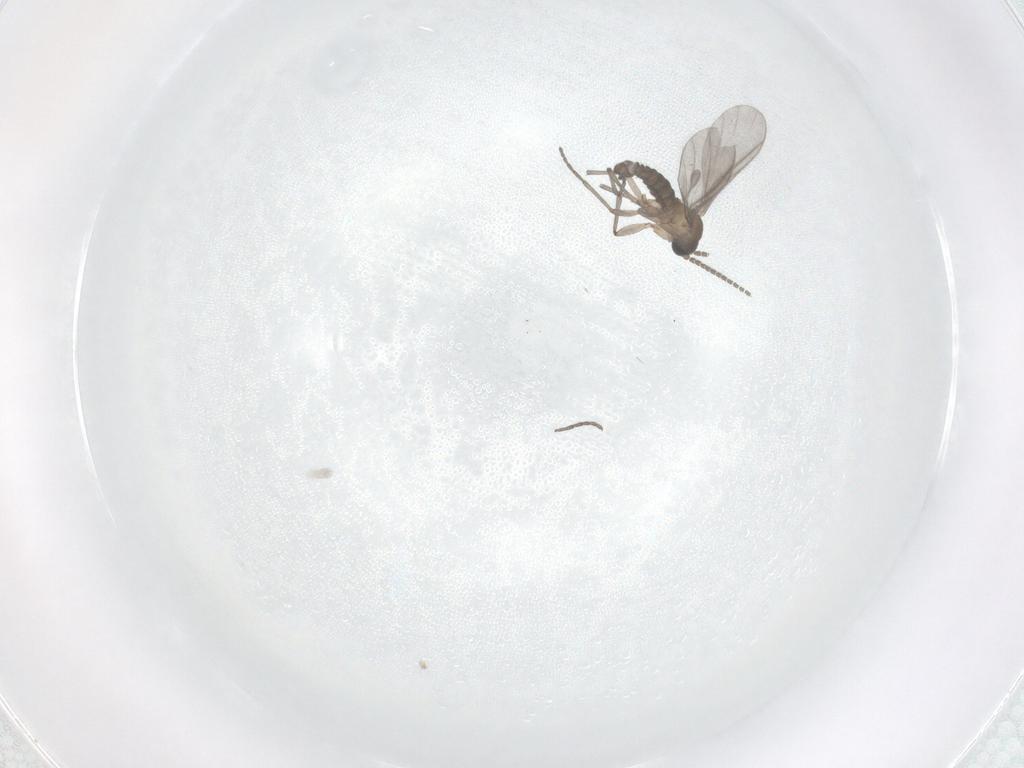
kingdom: Animalia
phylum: Arthropoda
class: Insecta
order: Diptera
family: Sciaridae
